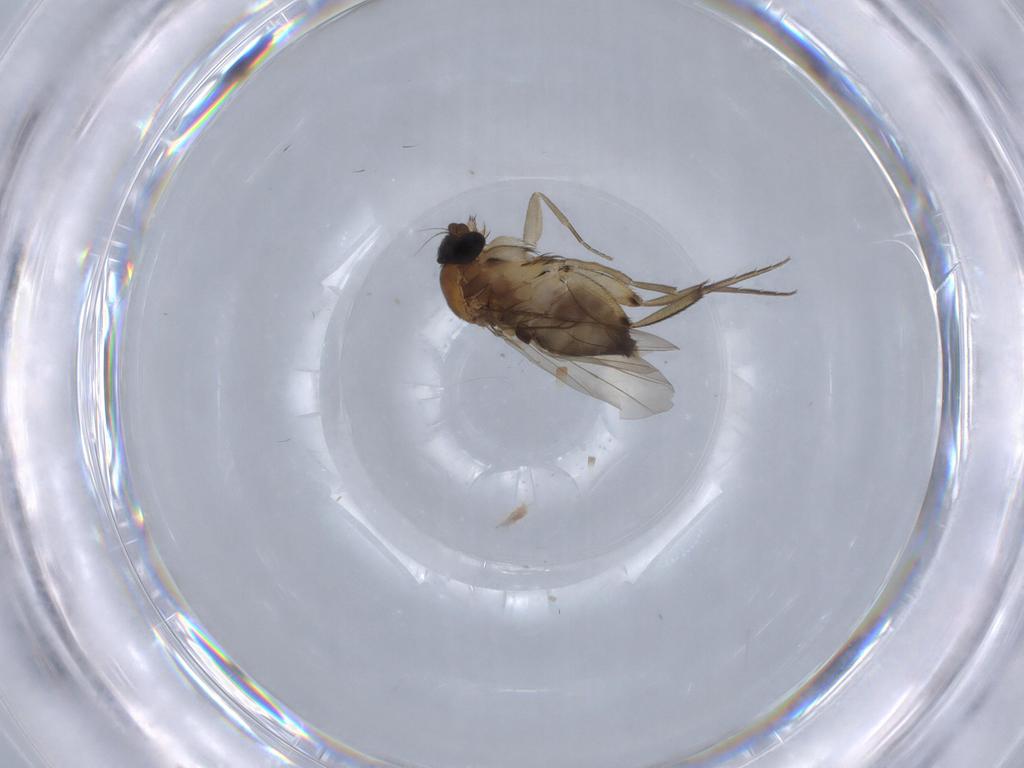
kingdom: Animalia
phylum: Arthropoda
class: Insecta
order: Diptera
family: Phoridae
